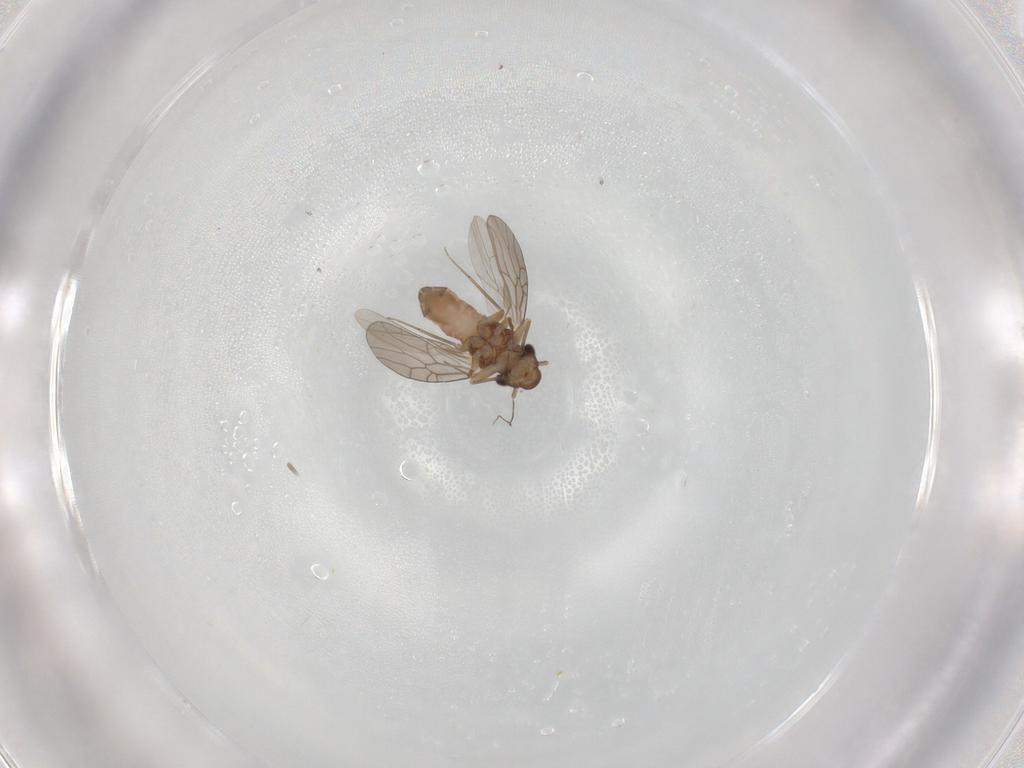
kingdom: Animalia
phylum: Arthropoda
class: Insecta
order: Psocodea
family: Lepidopsocidae
